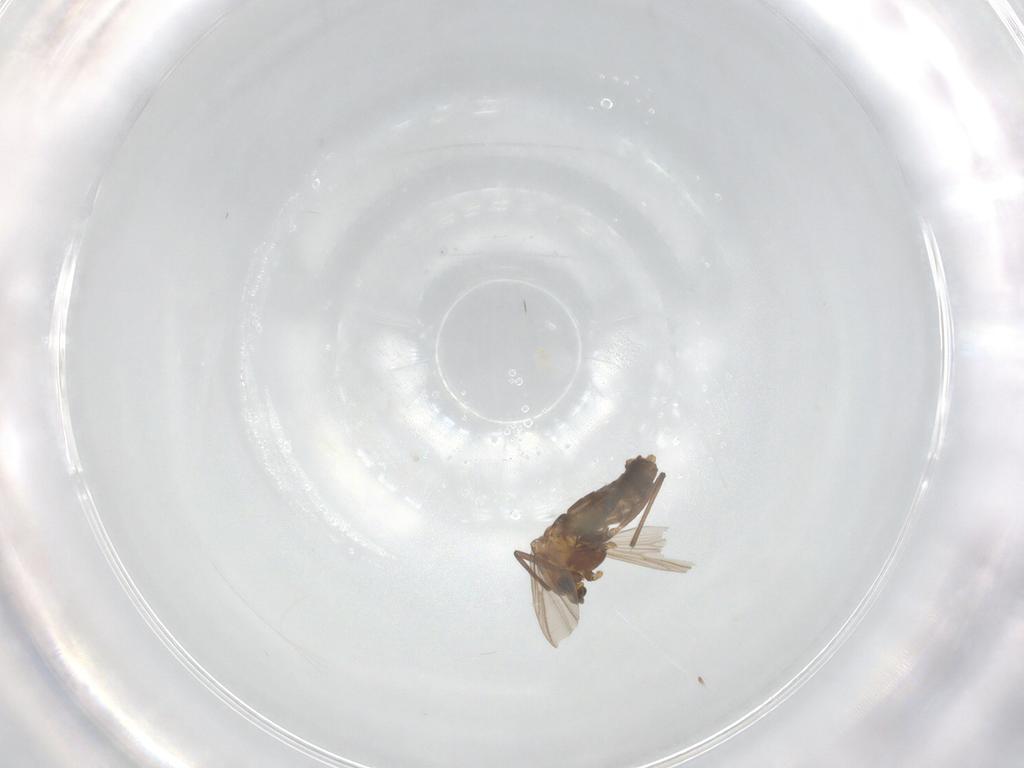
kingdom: Animalia
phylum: Arthropoda
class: Insecta
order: Diptera
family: Chironomidae
